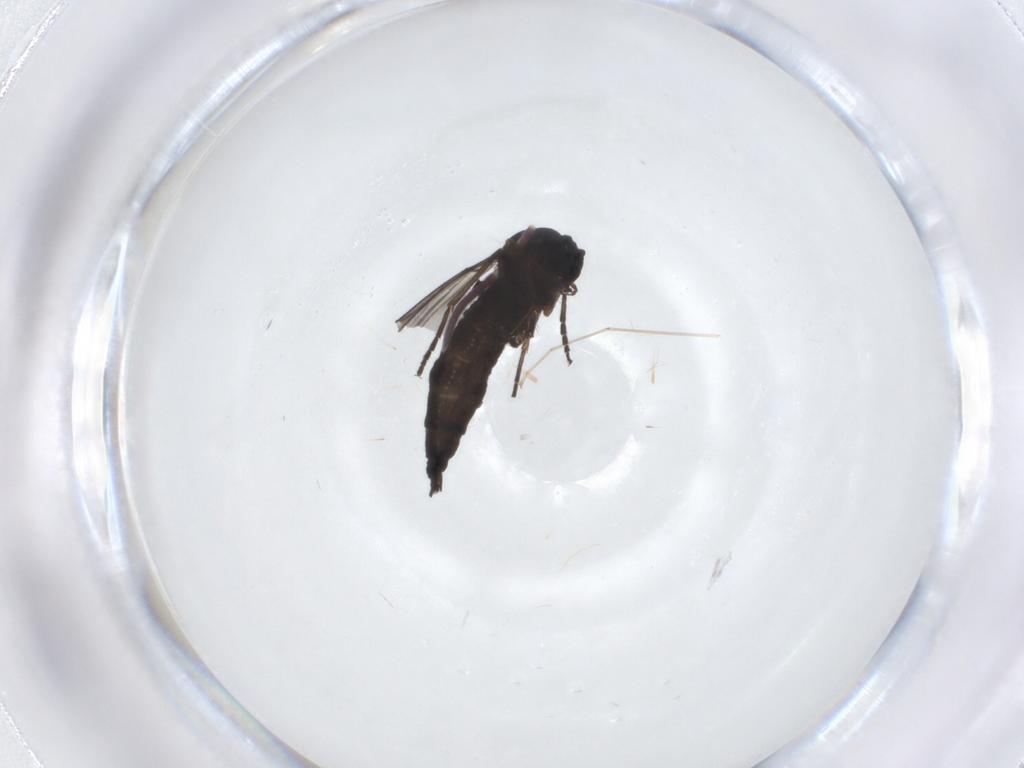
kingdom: Animalia
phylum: Arthropoda
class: Insecta
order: Diptera
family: Sciaridae
